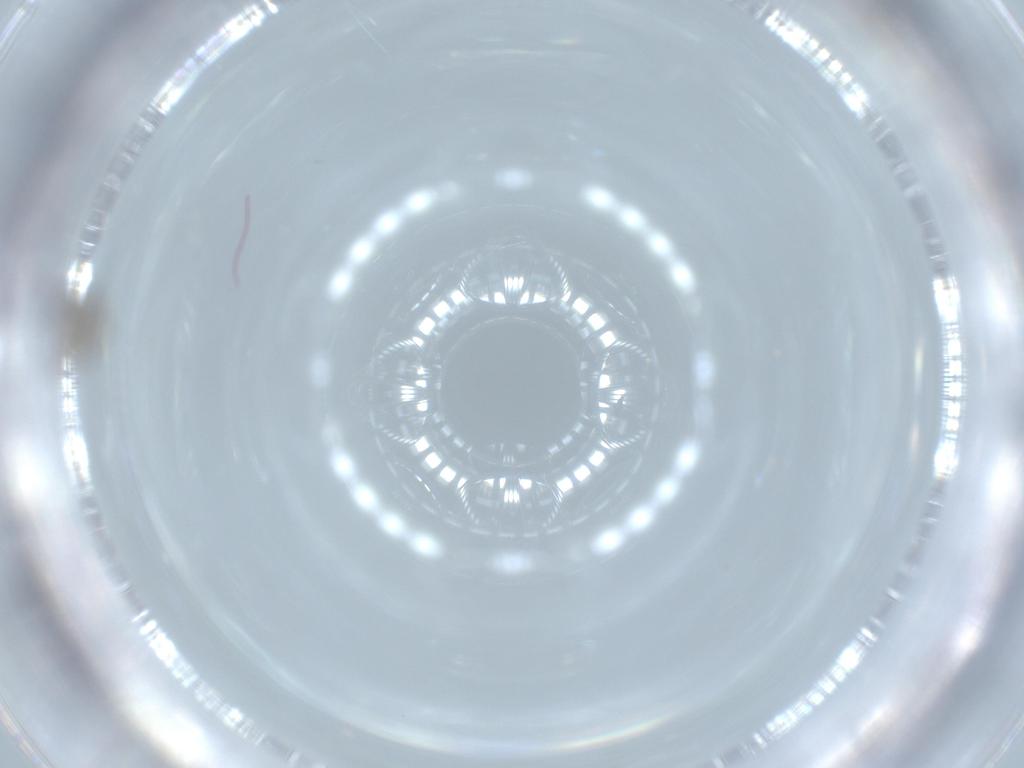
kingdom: Animalia
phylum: Arthropoda
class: Insecta
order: Diptera
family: Cecidomyiidae
